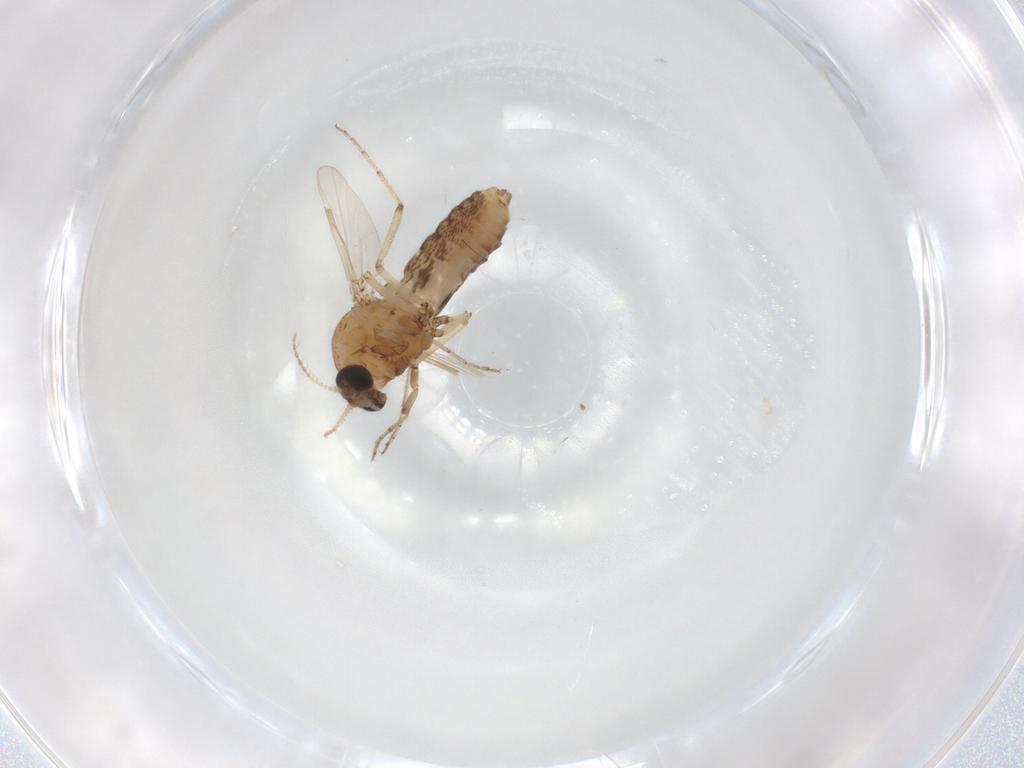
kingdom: Animalia
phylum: Arthropoda
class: Insecta
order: Diptera
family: Ceratopogonidae
